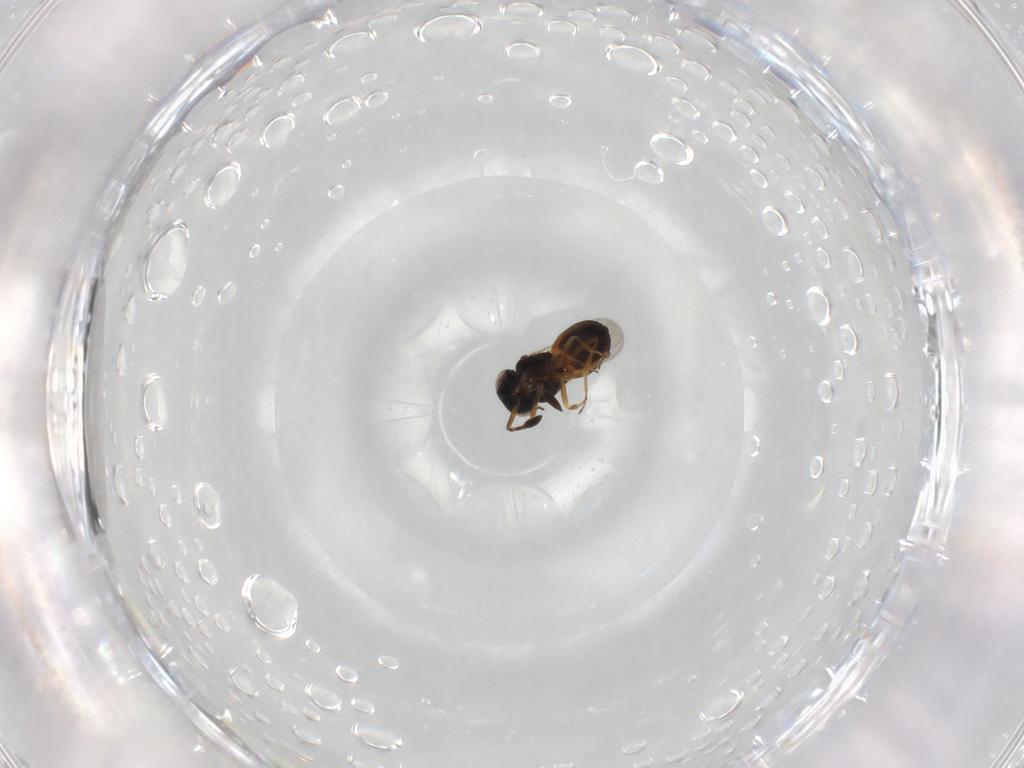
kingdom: Animalia
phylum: Arthropoda
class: Insecta
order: Hymenoptera
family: Scelionidae
